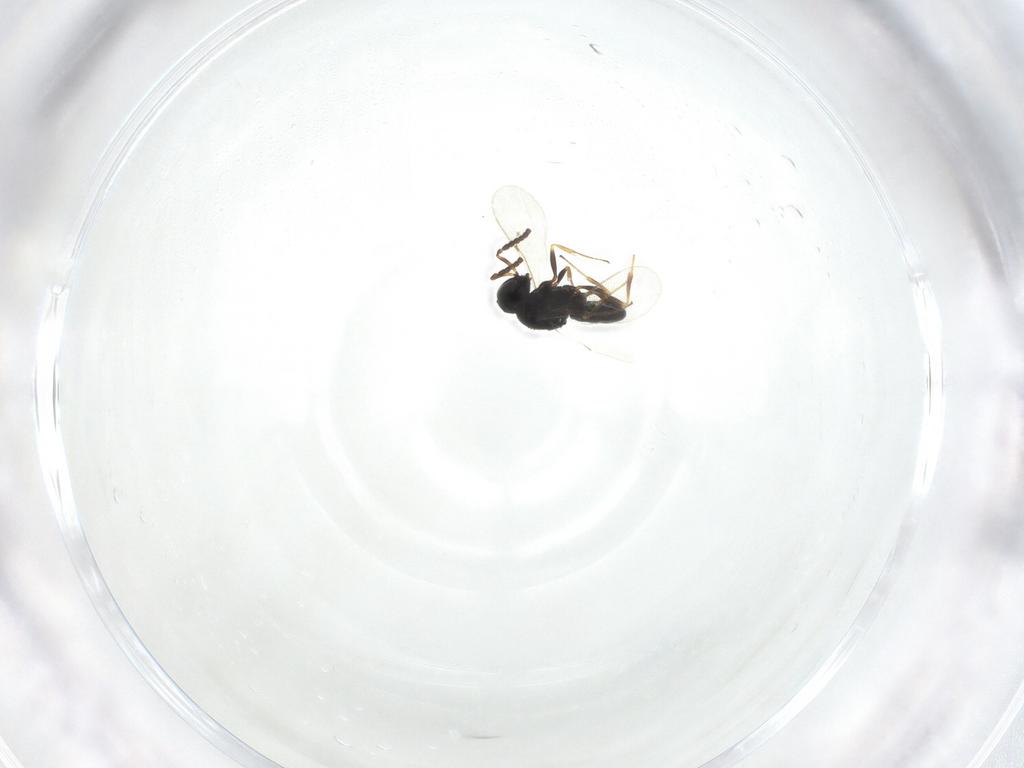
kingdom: Animalia
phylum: Arthropoda
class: Insecta
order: Hymenoptera
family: Scelionidae
